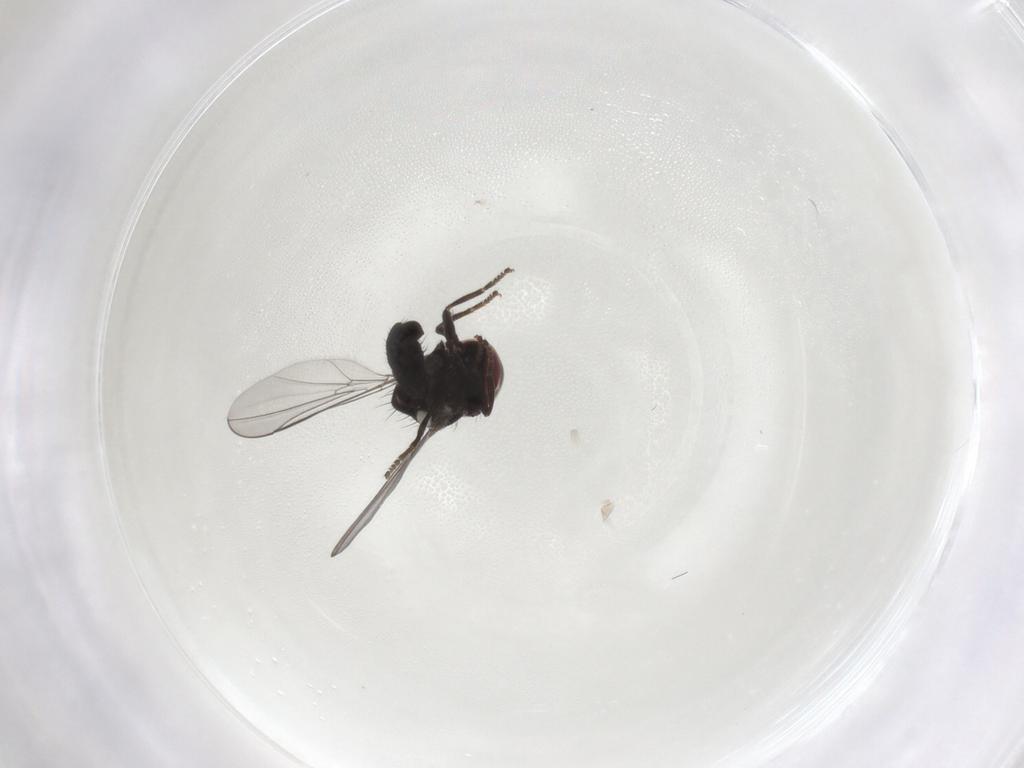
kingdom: Animalia
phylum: Arthropoda
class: Insecta
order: Diptera
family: Pipunculidae
